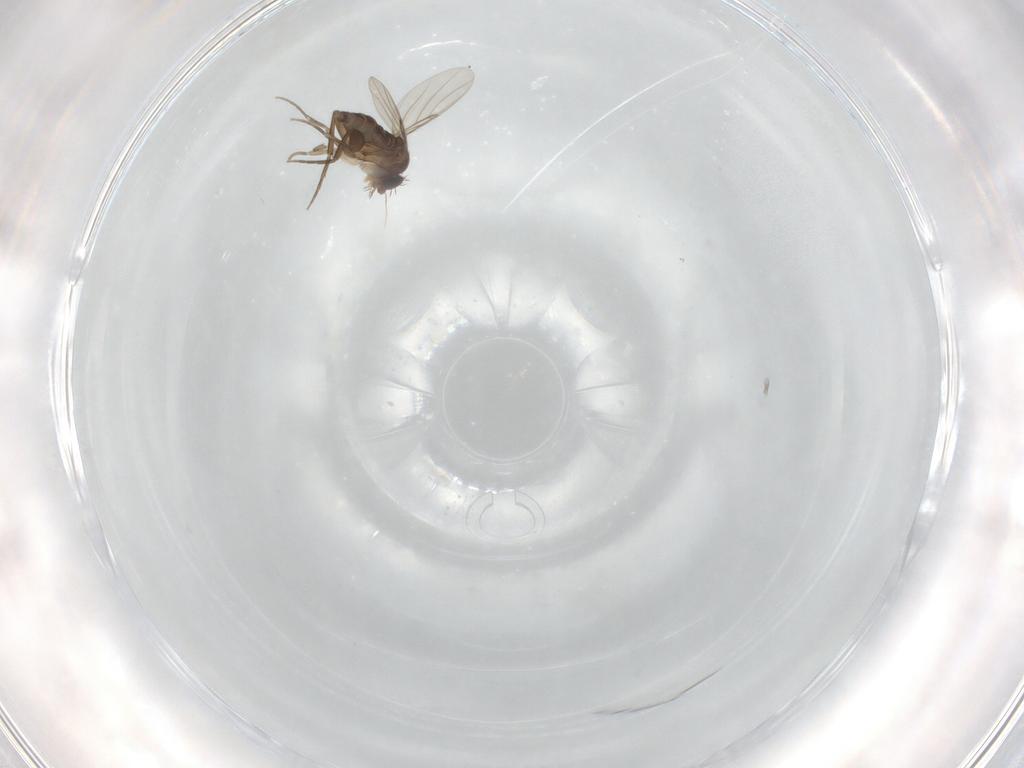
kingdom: Animalia
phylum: Arthropoda
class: Insecta
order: Diptera
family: Phoridae
